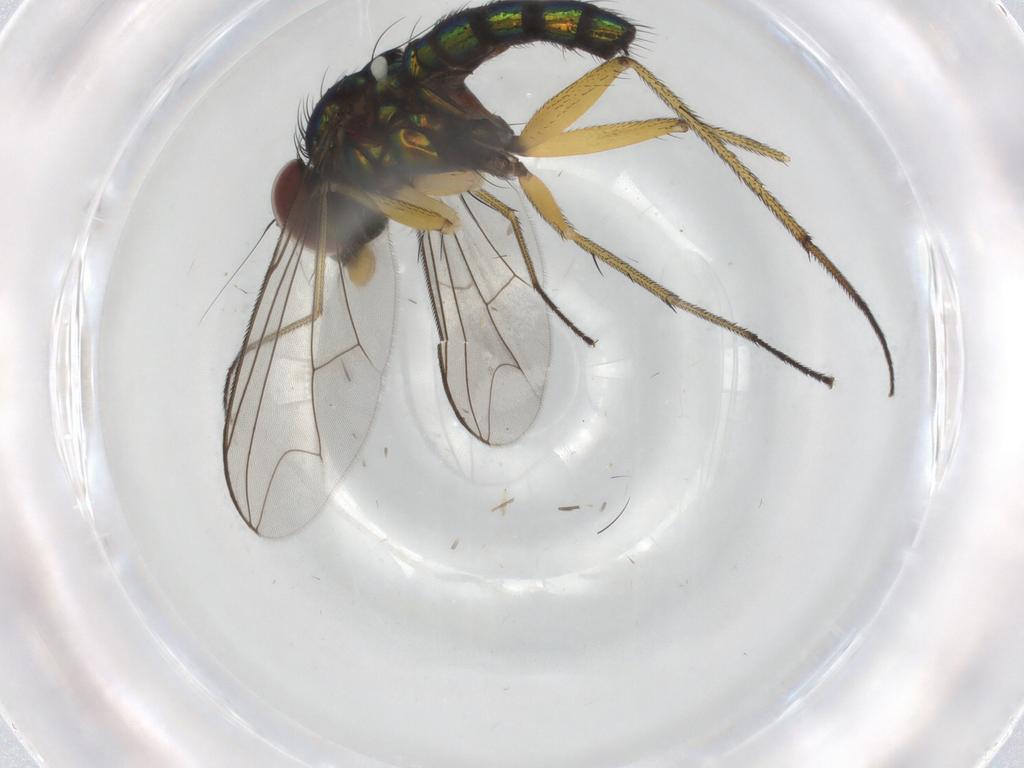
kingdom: Animalia
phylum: Arthropoda
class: Insecta
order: Diptera
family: Dolichopodidae
